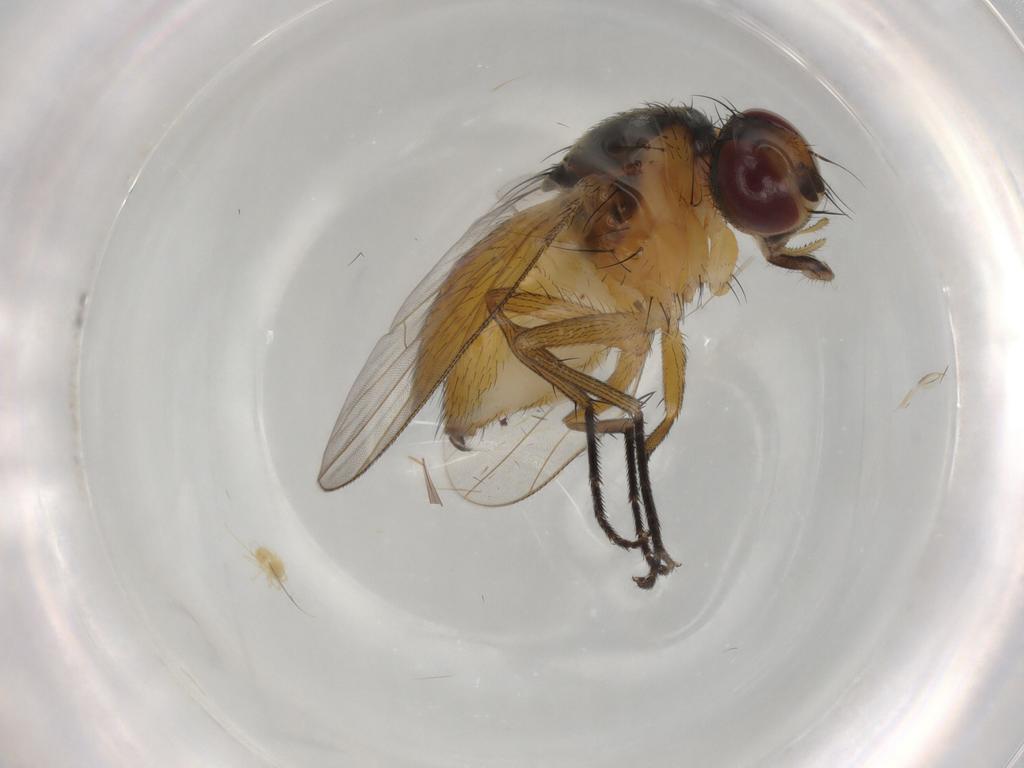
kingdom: Animalia
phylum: Arthropoda
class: Insecta
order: Diptera
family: Muscidae
